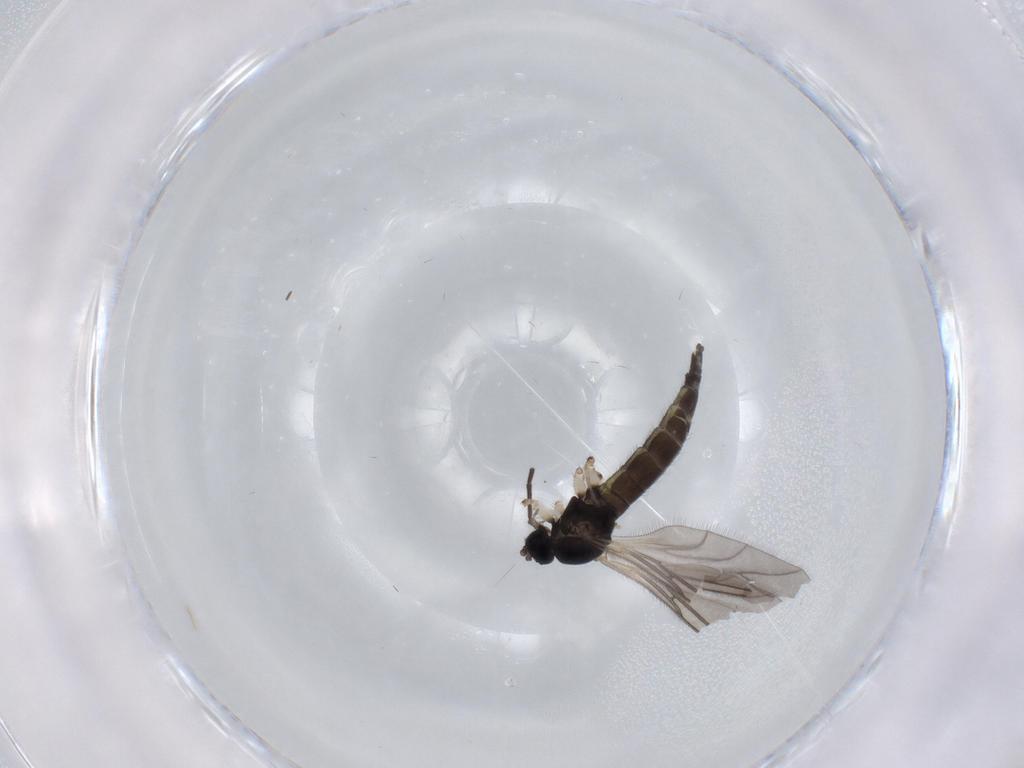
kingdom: Animalia
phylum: Arthropoda
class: Insecta
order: Diptera
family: Sciaridae
